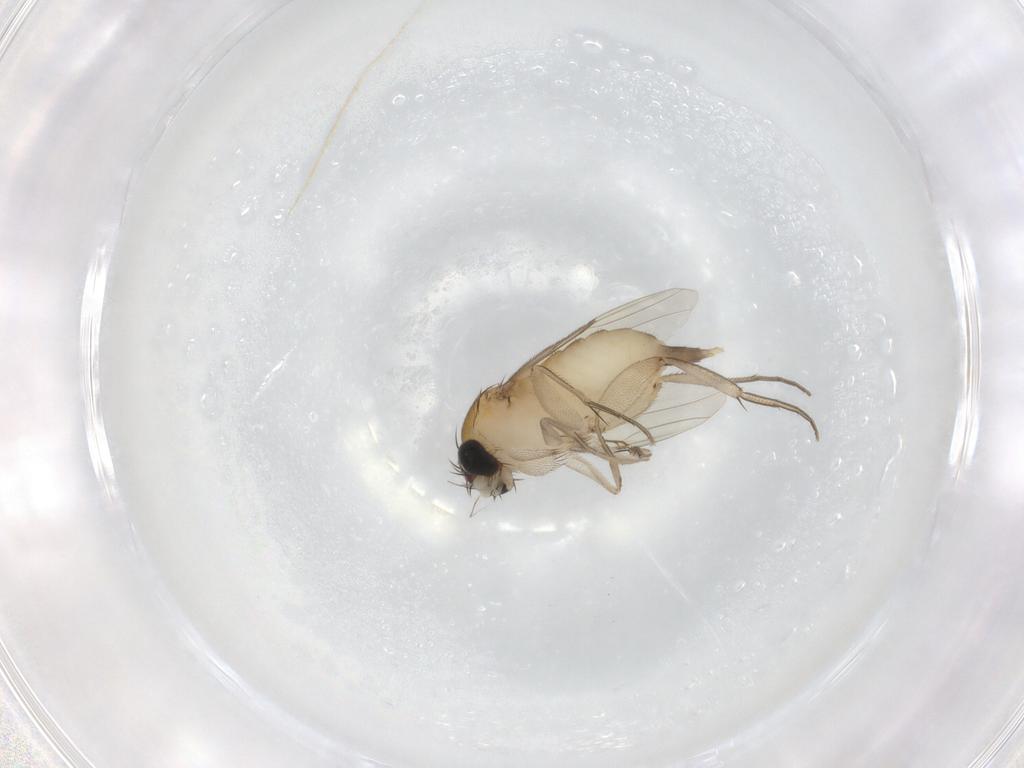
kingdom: Animalia
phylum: Arthropoda
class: Insecta
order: Diptera
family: Phoridae
